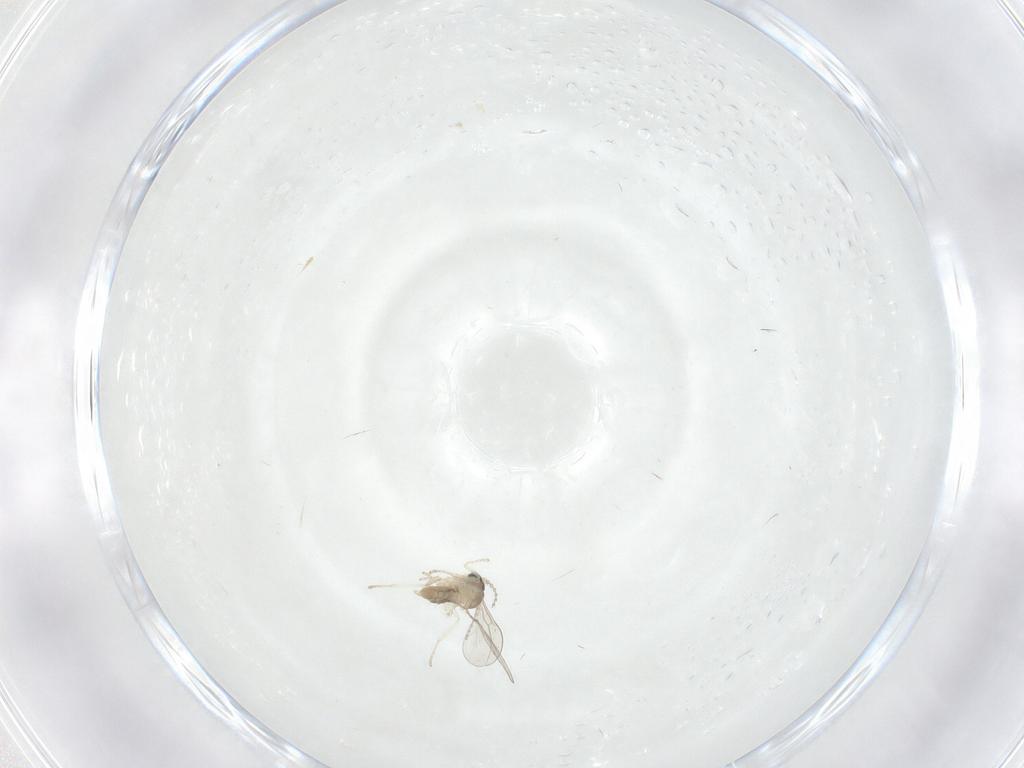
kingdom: Animalia
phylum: Arthropoda
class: Insecta
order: Diptera
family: Cecidomyiidae
